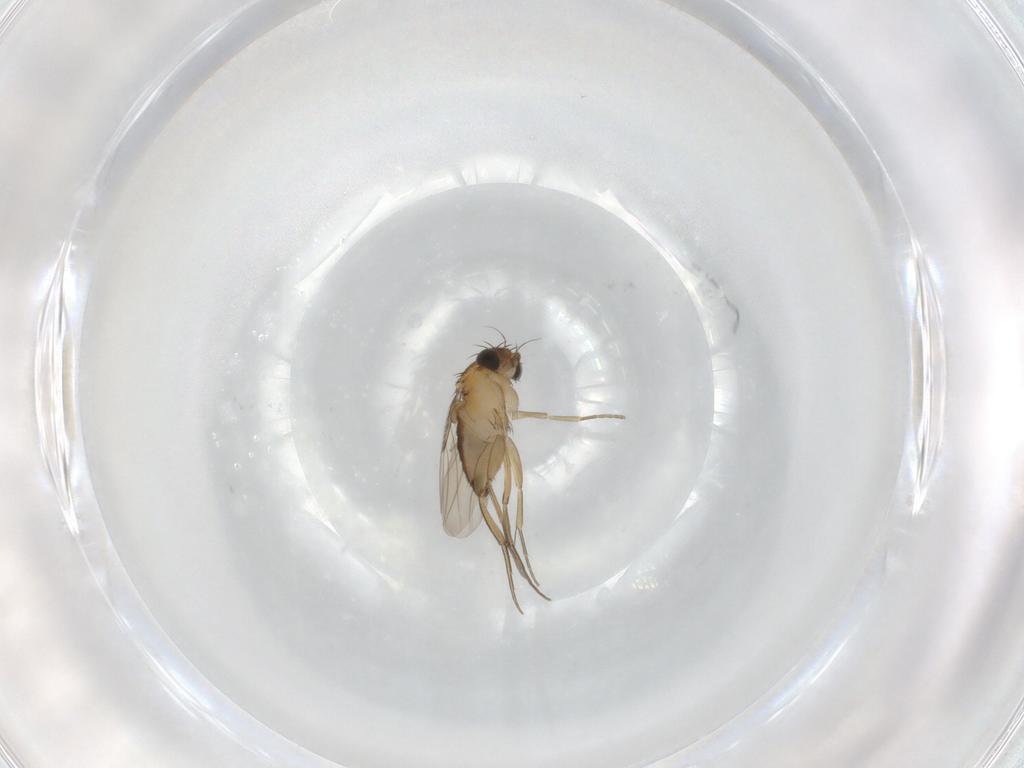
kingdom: Animalia
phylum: Arthropoda
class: Insecta
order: Diptera
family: Phoridae
